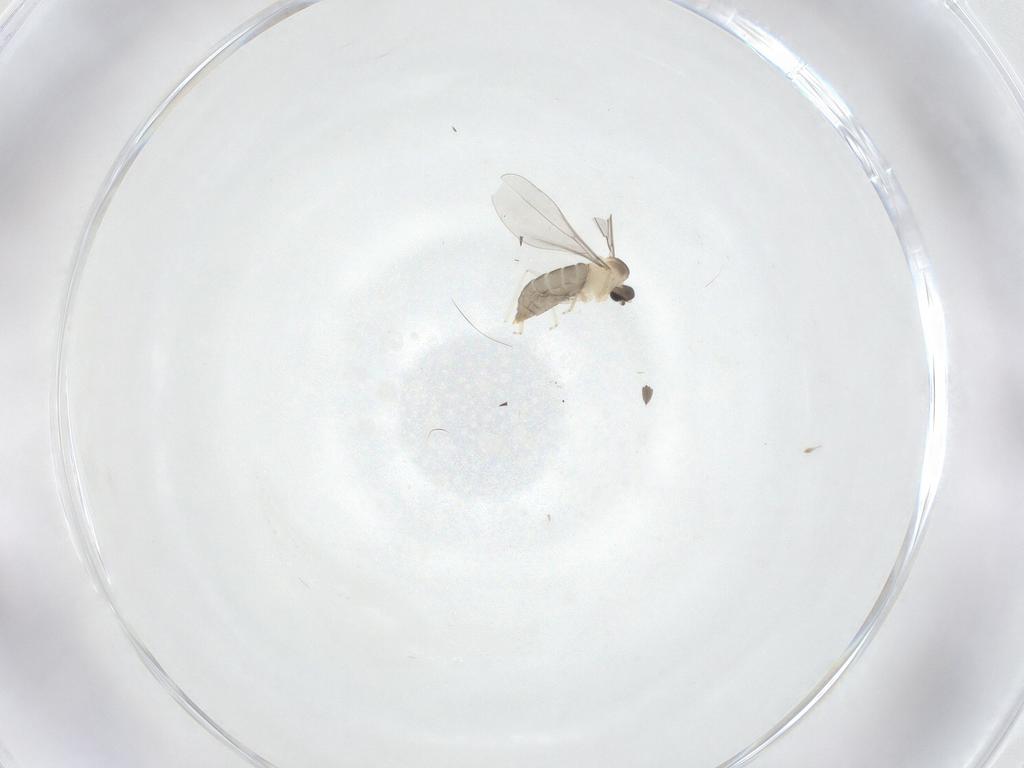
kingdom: Animalia
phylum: Arthropoda
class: Insecta
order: Diptera
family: Cecidomyiidae
